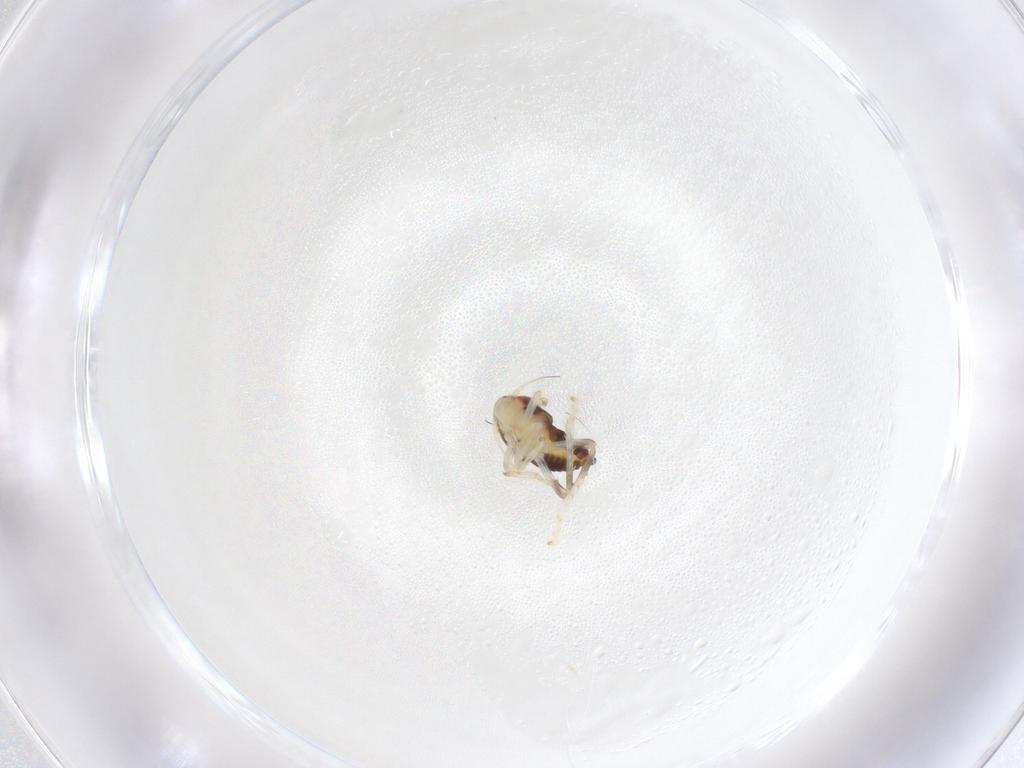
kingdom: Animalia
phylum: Arthropoda
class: Insecta
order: Hemiptera
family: Cicadellidae
